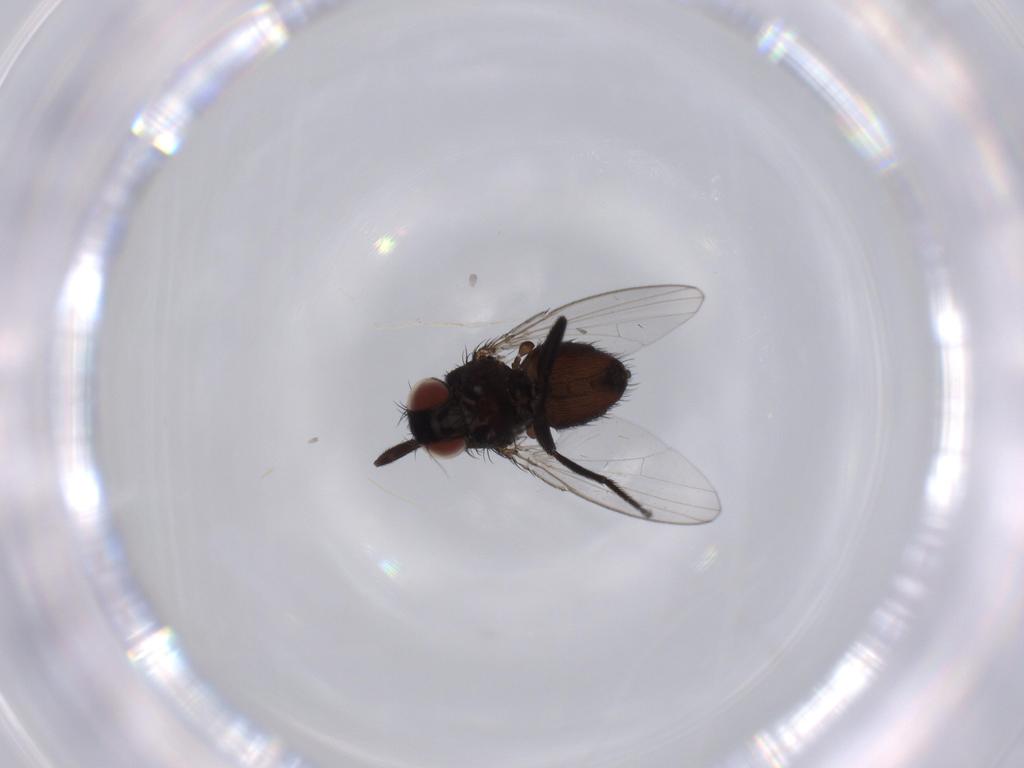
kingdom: Animalia
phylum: Arthropoda
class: Insecta
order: Diptera
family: Milichiidae
